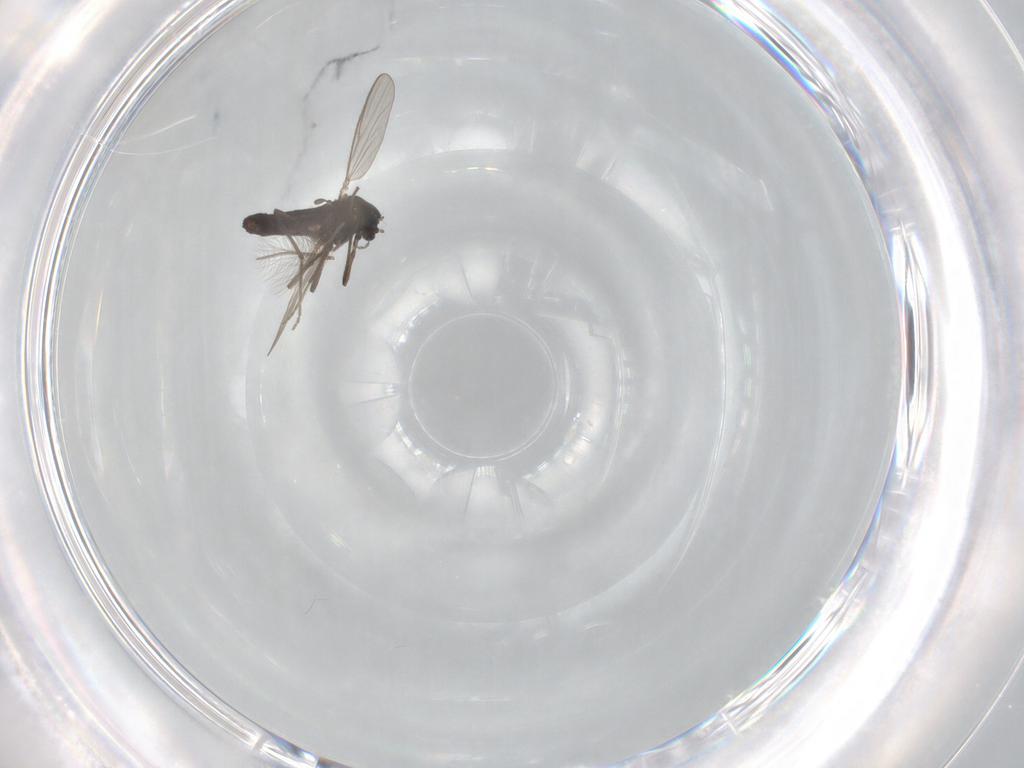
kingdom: Animalia
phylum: Arthropoda
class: Insecta
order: Diptera
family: Chironomidae
